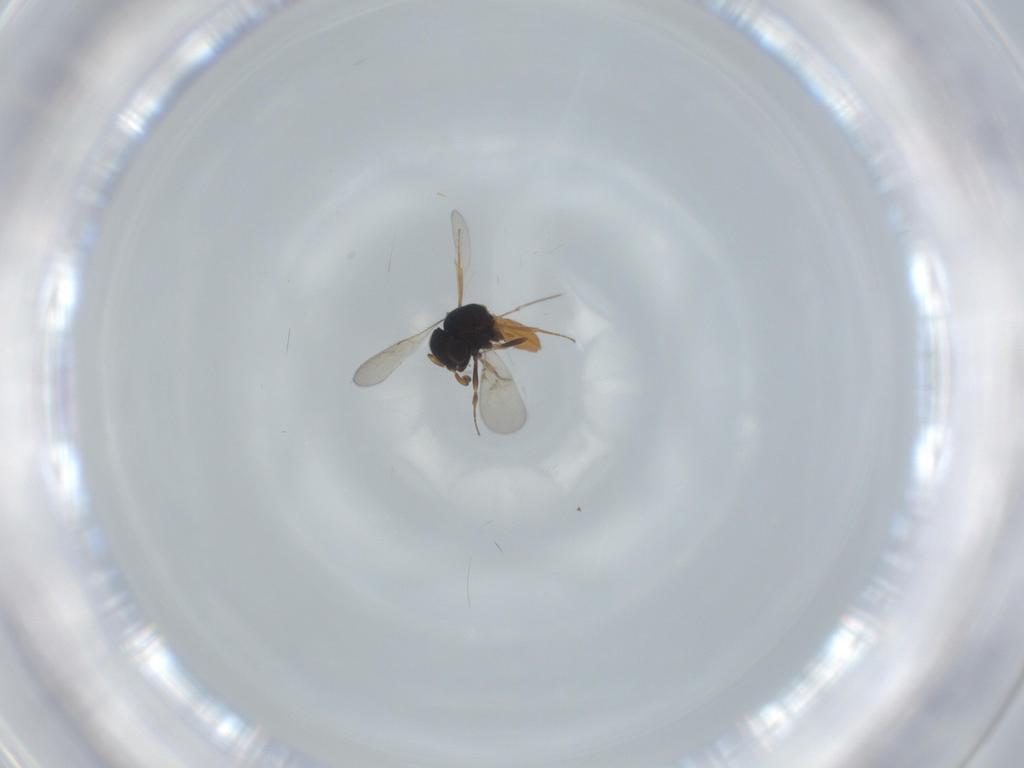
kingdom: Animalia
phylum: Arthropoda
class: Insecta
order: Hymenoptera
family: Scelionidae
